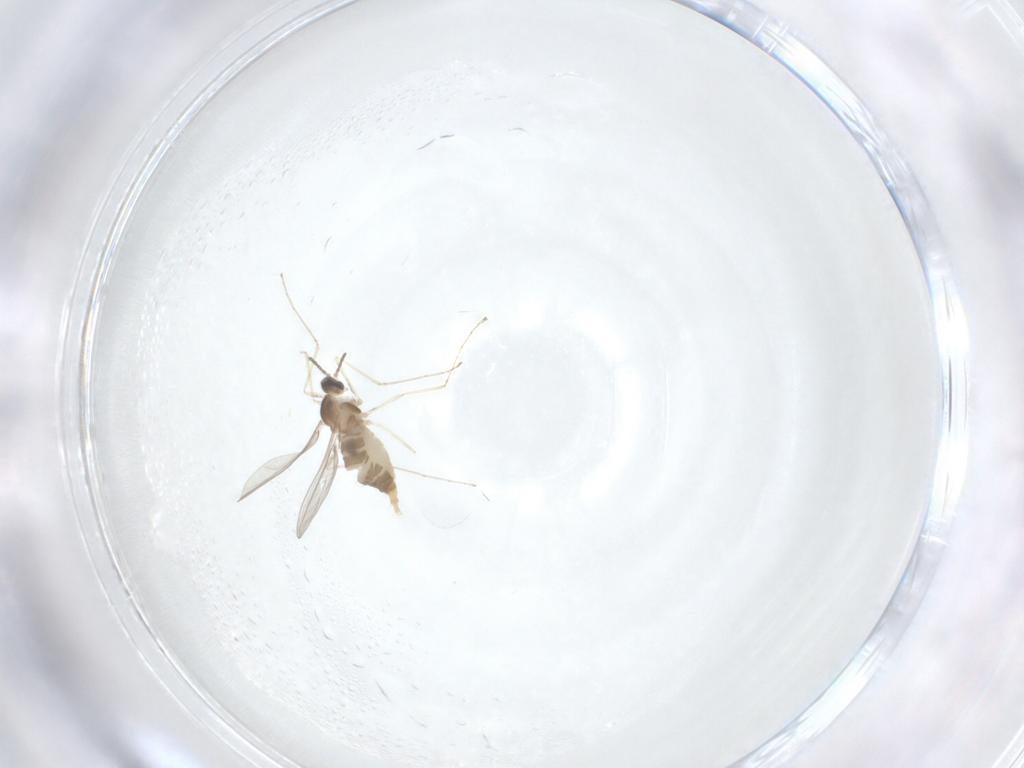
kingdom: Animalia
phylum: Arthropoda
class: Insecta
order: Diptera
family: Cecidomyiidae
